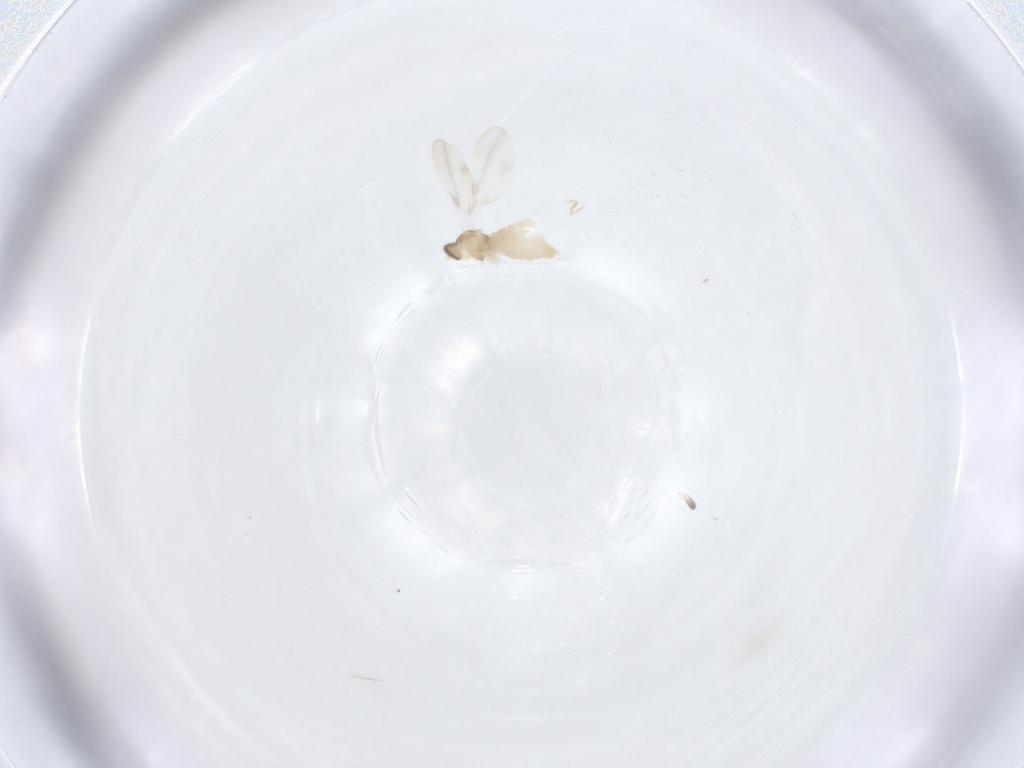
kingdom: Animalia
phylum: Arthropoda
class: Insecta
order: Diptera
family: Cecidomyiidae
